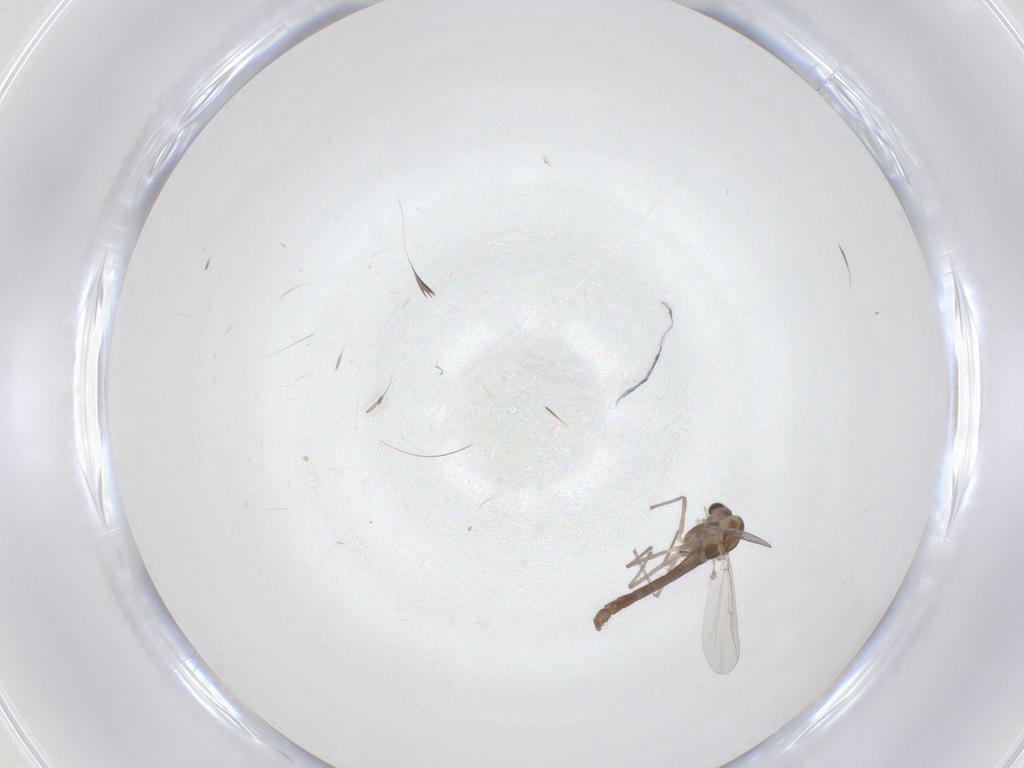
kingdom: Animalia
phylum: Arthropoda
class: Insecta
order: Diptera
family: Chironomidae
